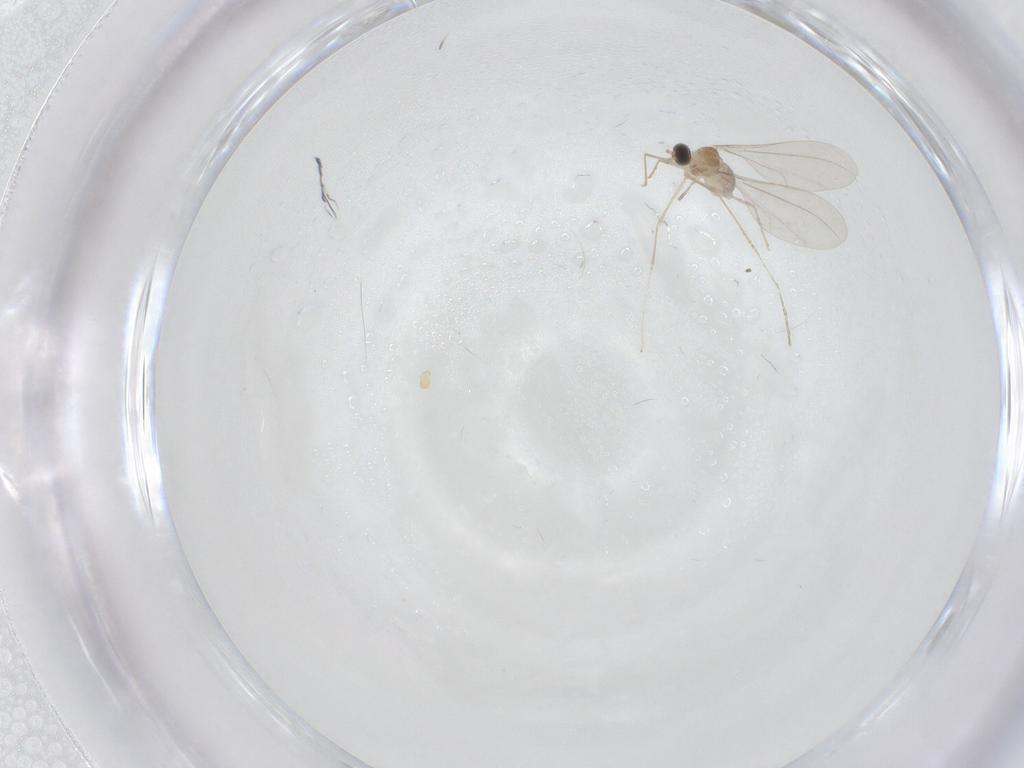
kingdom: Animalia
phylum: Arthropoda
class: Insecta
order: Diptera
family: Cecidomyiidae
